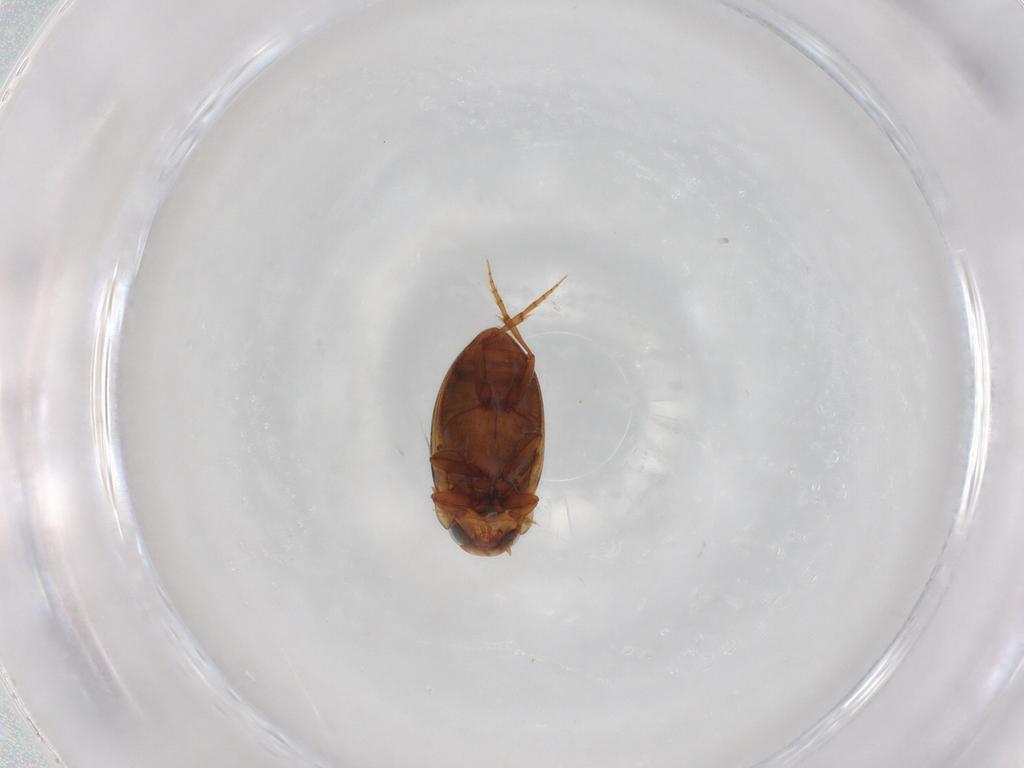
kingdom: Animalia
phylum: Arthropoda
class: Insecta
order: Coleoptera
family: Dytiscidae
